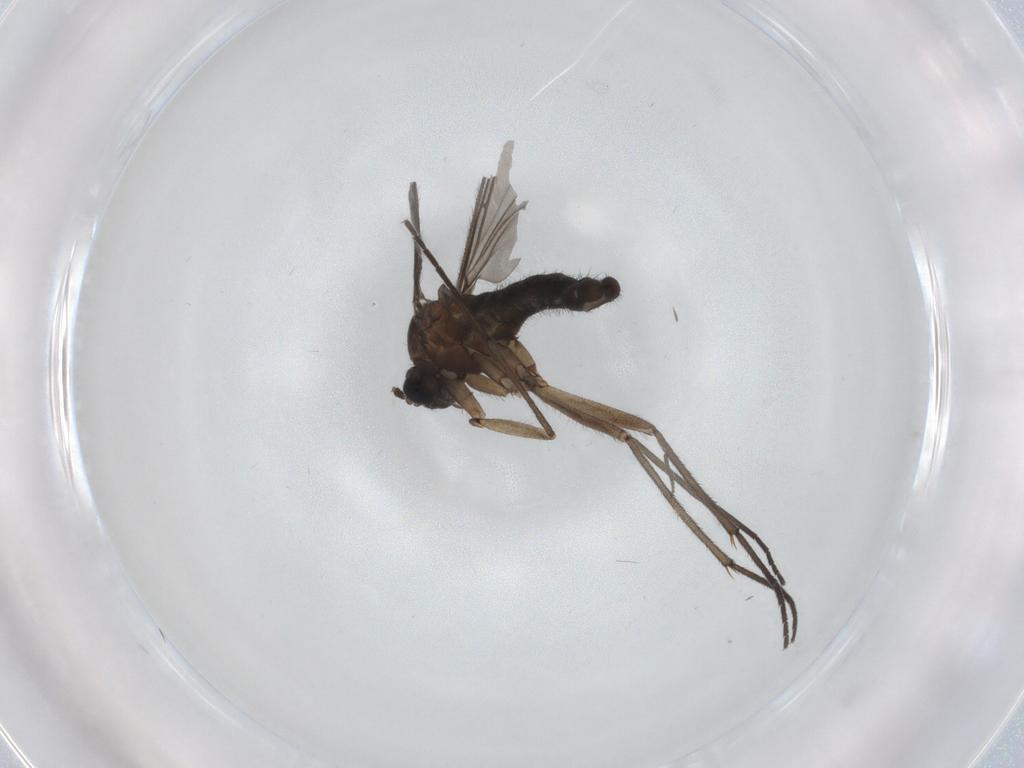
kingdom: Animalia
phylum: Arthropoda
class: Insecta
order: Diptera
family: Sciaridae
